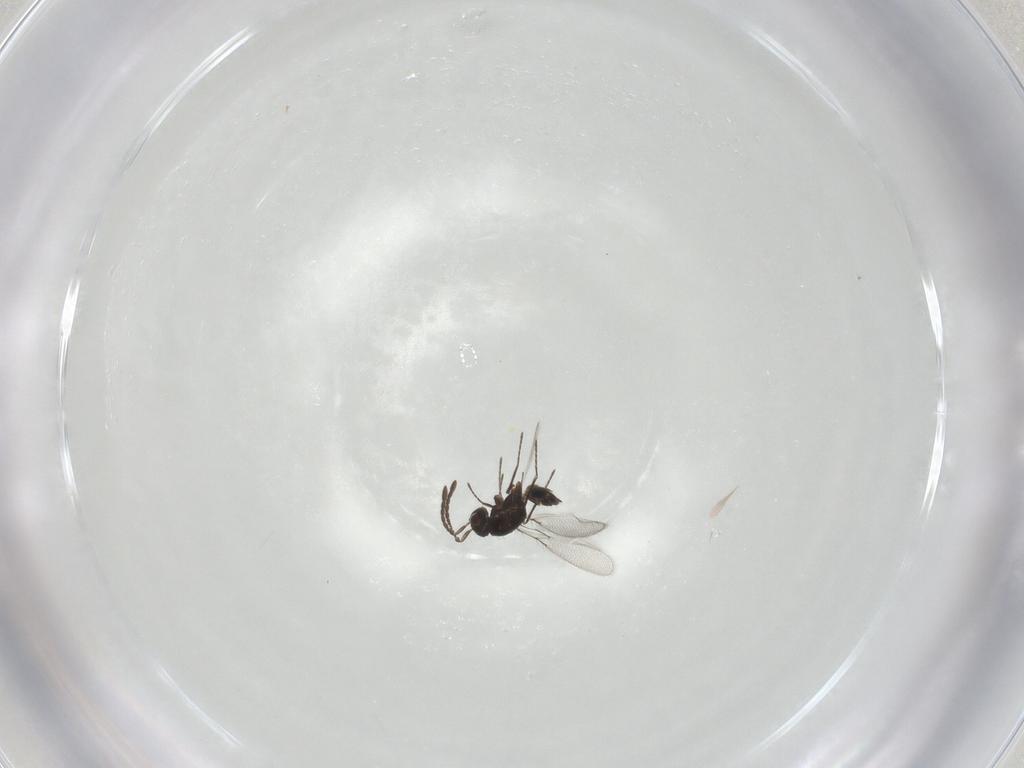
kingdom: Animalia
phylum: Arthropoda
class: Insecta
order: Hymenoptera
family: Mymaridae
